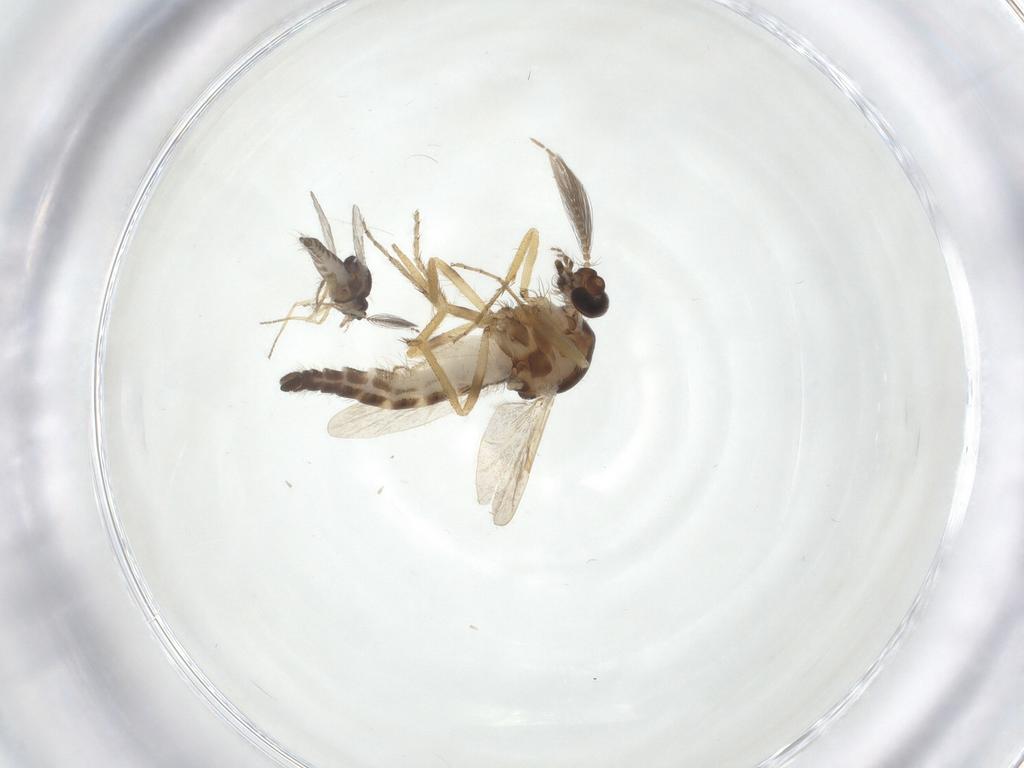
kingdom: Animalia
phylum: Arthropoda
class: Insecta
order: Diptera
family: Ceratopogonidae
